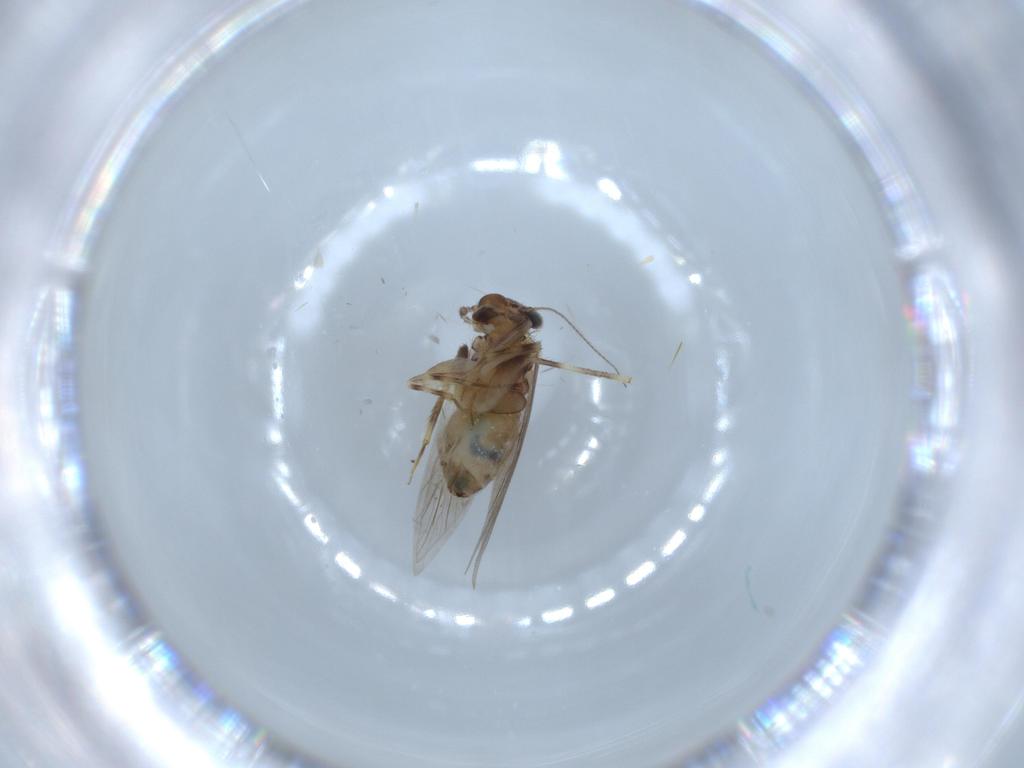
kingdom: Animalia
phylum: Arthropoda
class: Insecta
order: Psocodea
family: Lepidopsocidae
